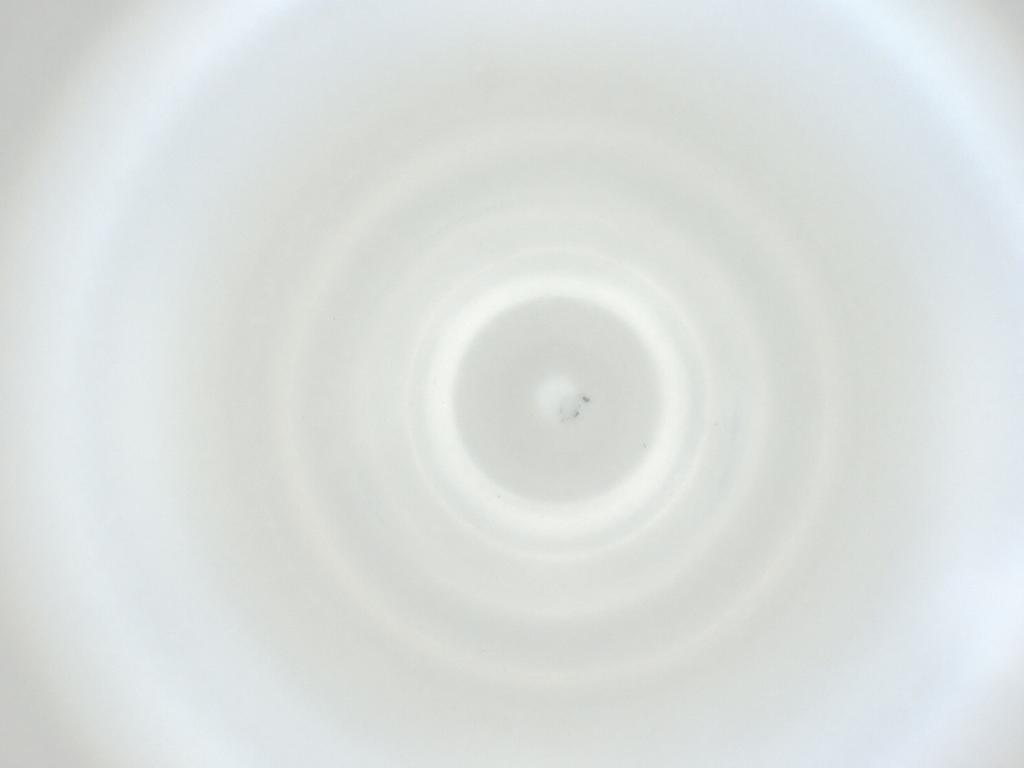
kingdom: Animalia
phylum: Arthropoda
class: Insecta
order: Diptera
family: Cecidomyiidae
